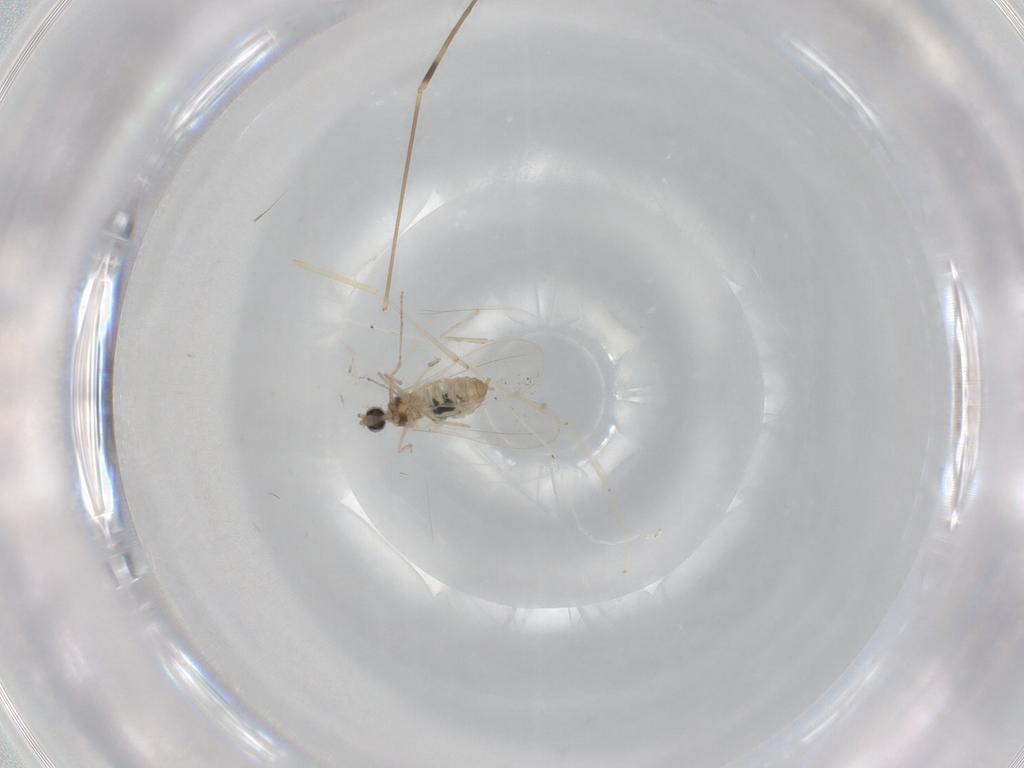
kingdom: Animalia
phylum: Arthropoda
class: Insecta
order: Diptera
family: Cecidomyiidae
